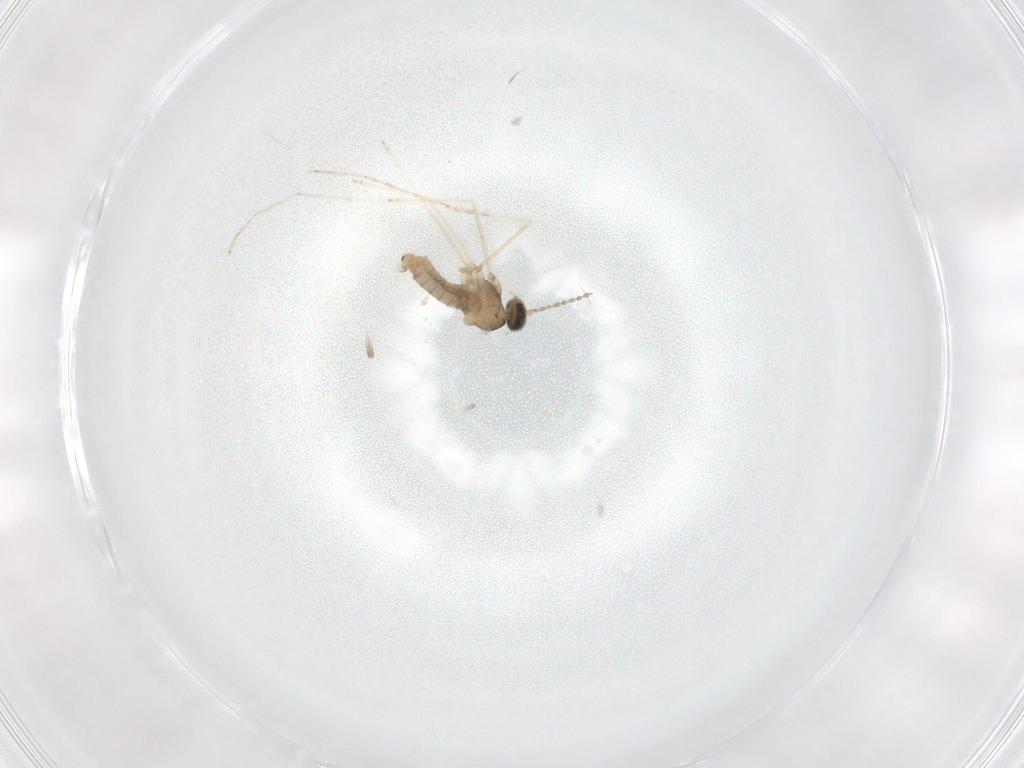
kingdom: Animalia
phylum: Arthropoda
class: Insecta
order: Diptera
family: Cecidomyiidae
